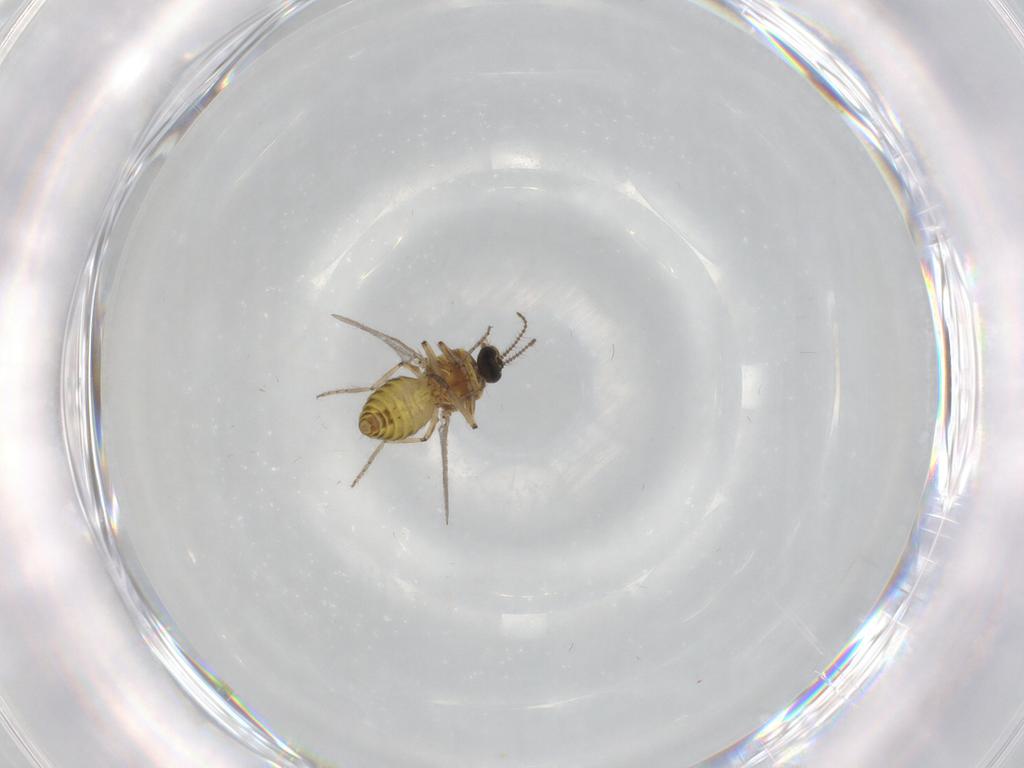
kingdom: Animalia
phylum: Arthropoda
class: Insecta
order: Diptera
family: Ceratopogonidae
